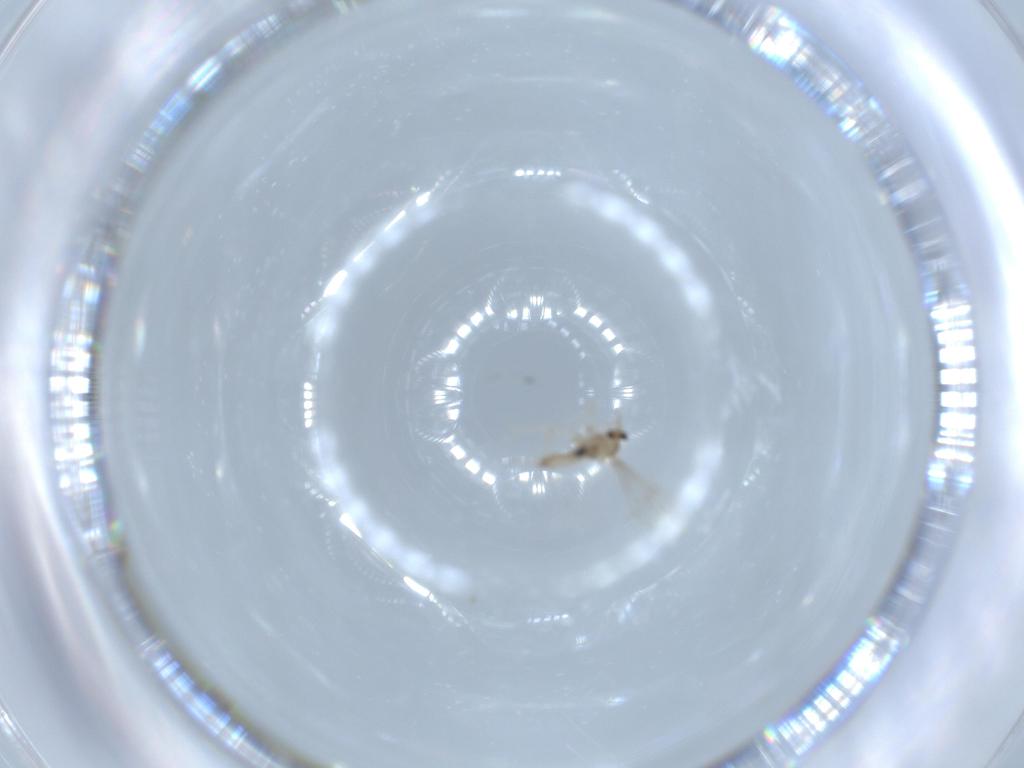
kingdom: Animalia
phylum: Arthropoda
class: Insecta
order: Diptera
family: Cecidomyiidae
